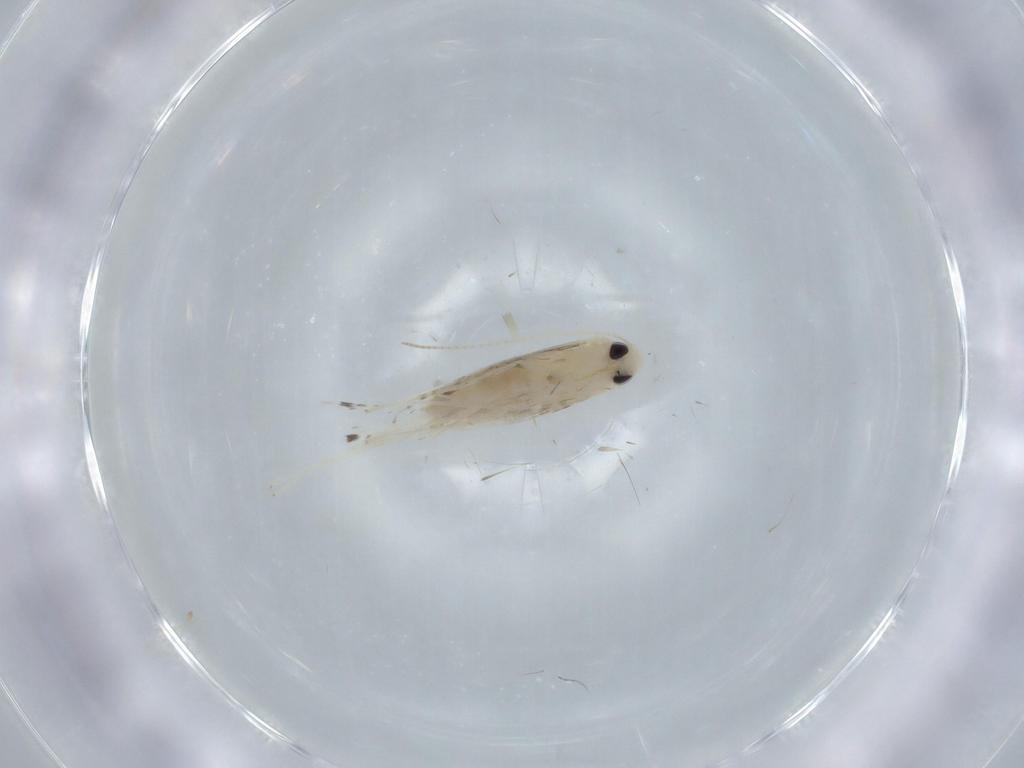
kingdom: Animalia
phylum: Arthropoda
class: Insecta
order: Lepidoptera
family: Gracillariidae
